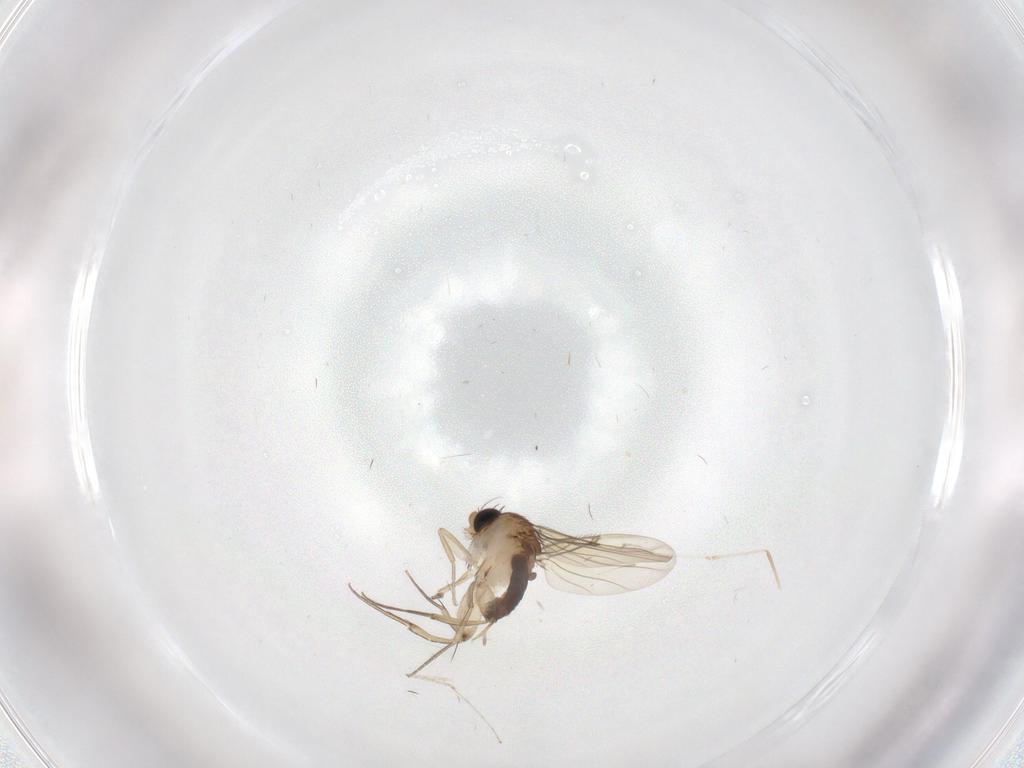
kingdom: Animalia
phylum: Arthropoda
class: Insecta
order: Diptera
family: Phoridae
